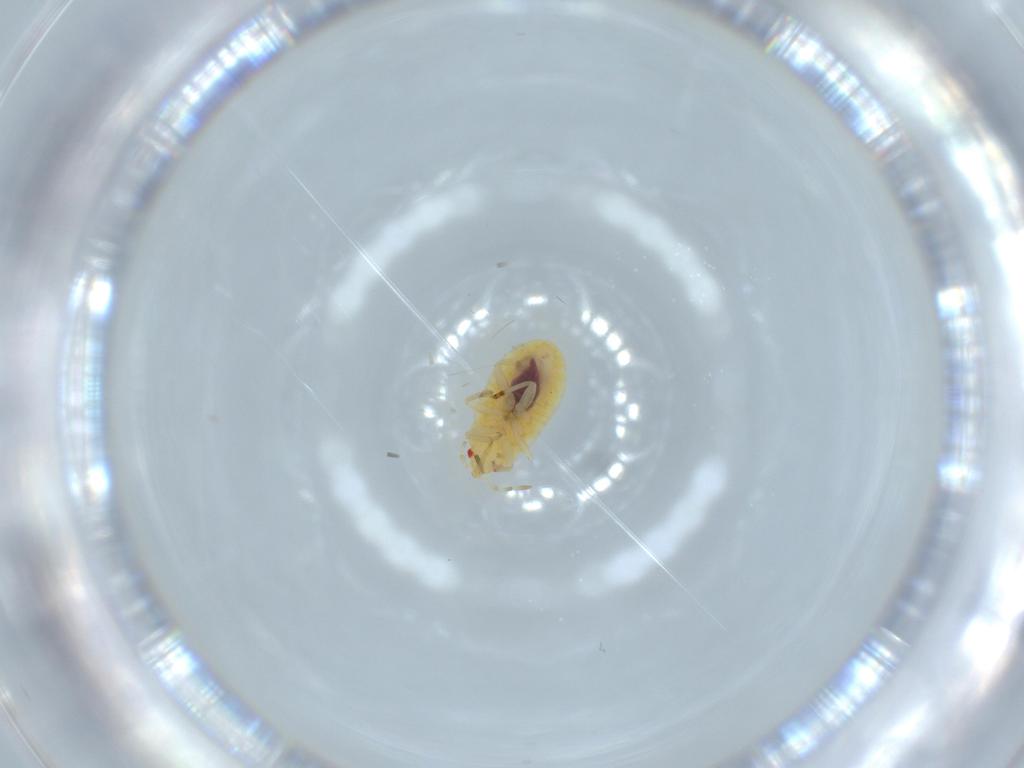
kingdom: Animalia
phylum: Arthropoda
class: Insecta
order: Hemiptera
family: Anthocoridae
